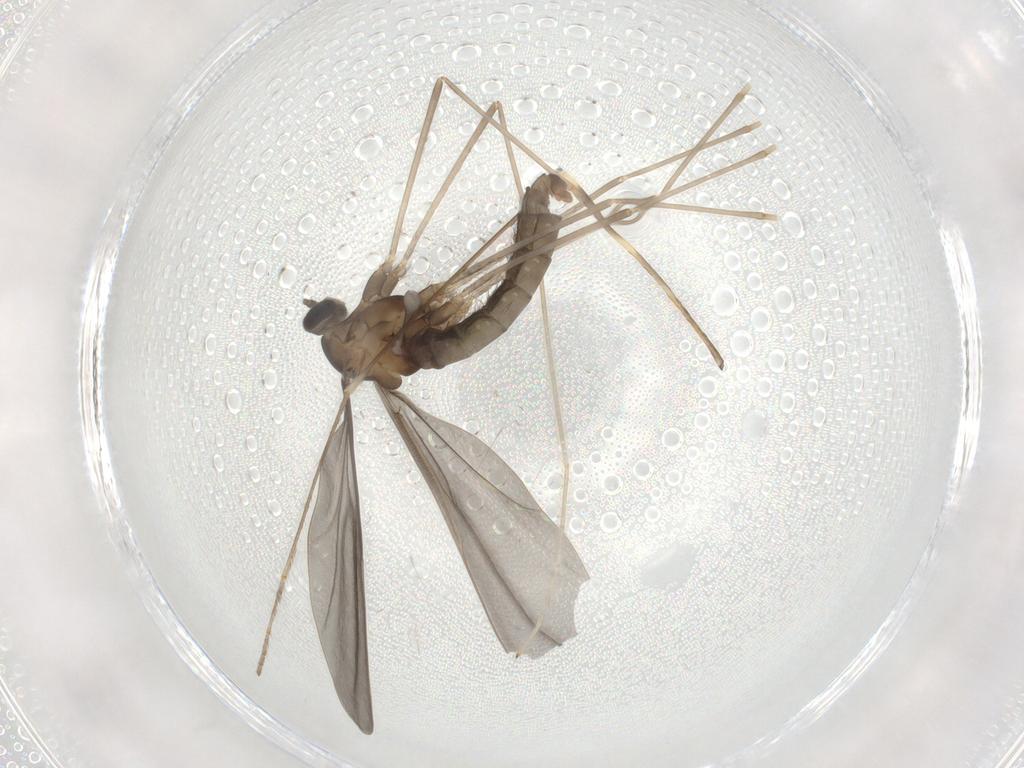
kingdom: Animalia
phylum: Arthropoda
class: Insecta
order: Diptera
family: Limoniidae
